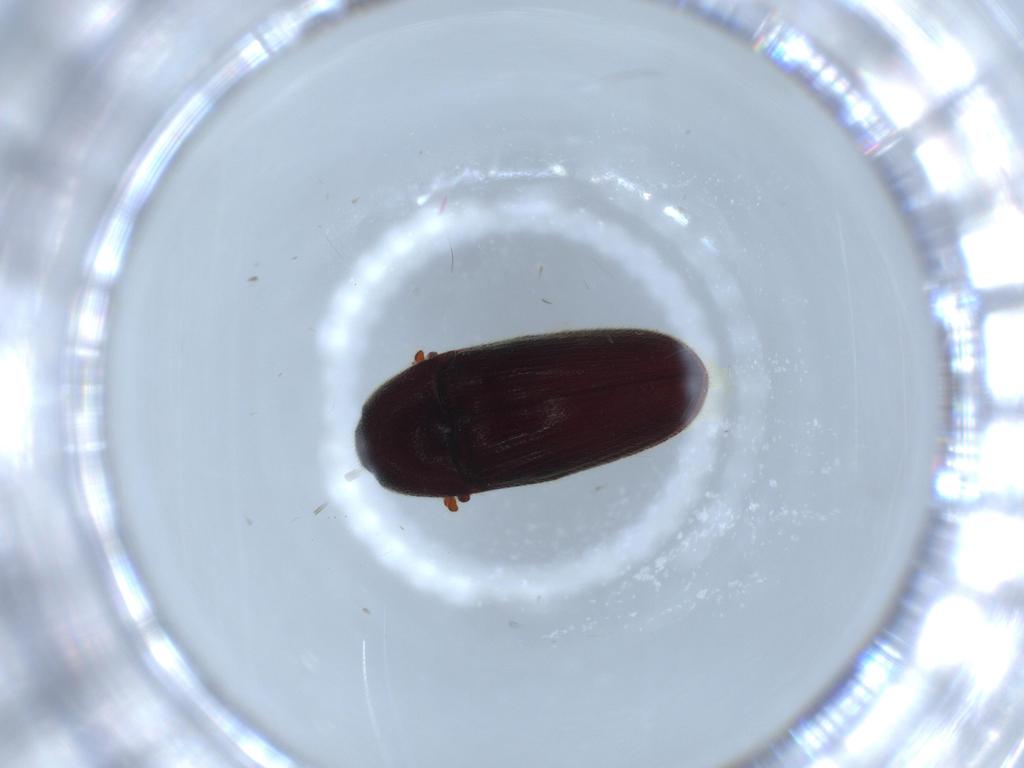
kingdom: Animalia
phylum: Arthropoda
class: Insecta
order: Coleoptera
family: Throscidae
